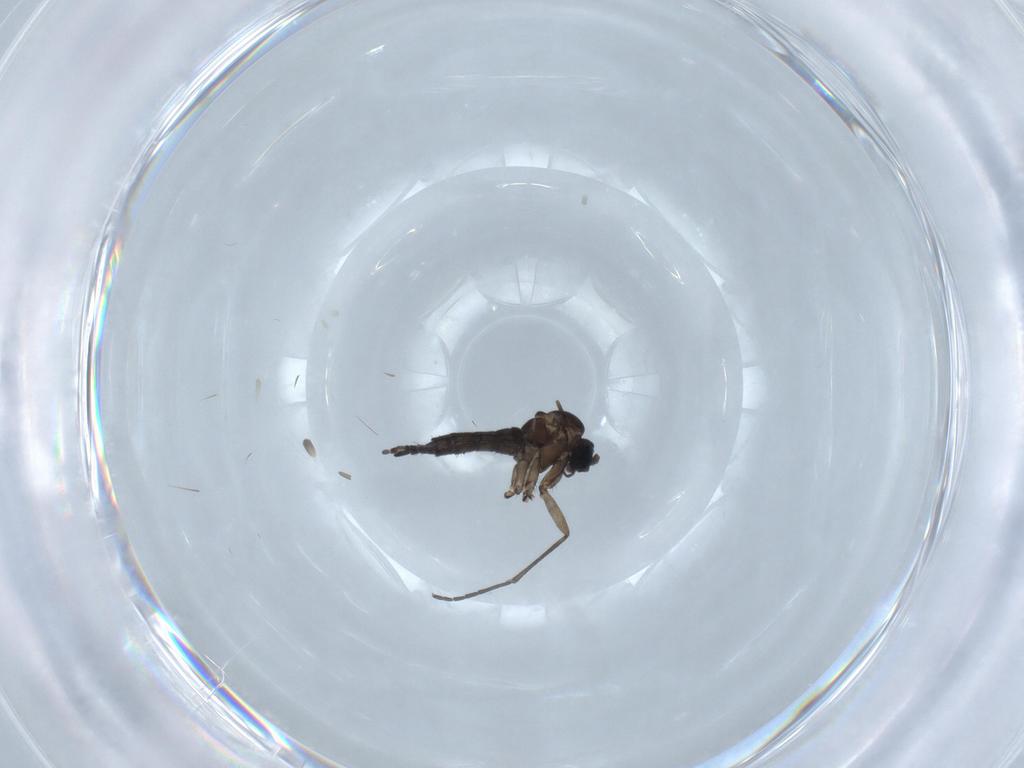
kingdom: Animalia
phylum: Arthropoda
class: Insecta
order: Diptera
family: Sciaridae
